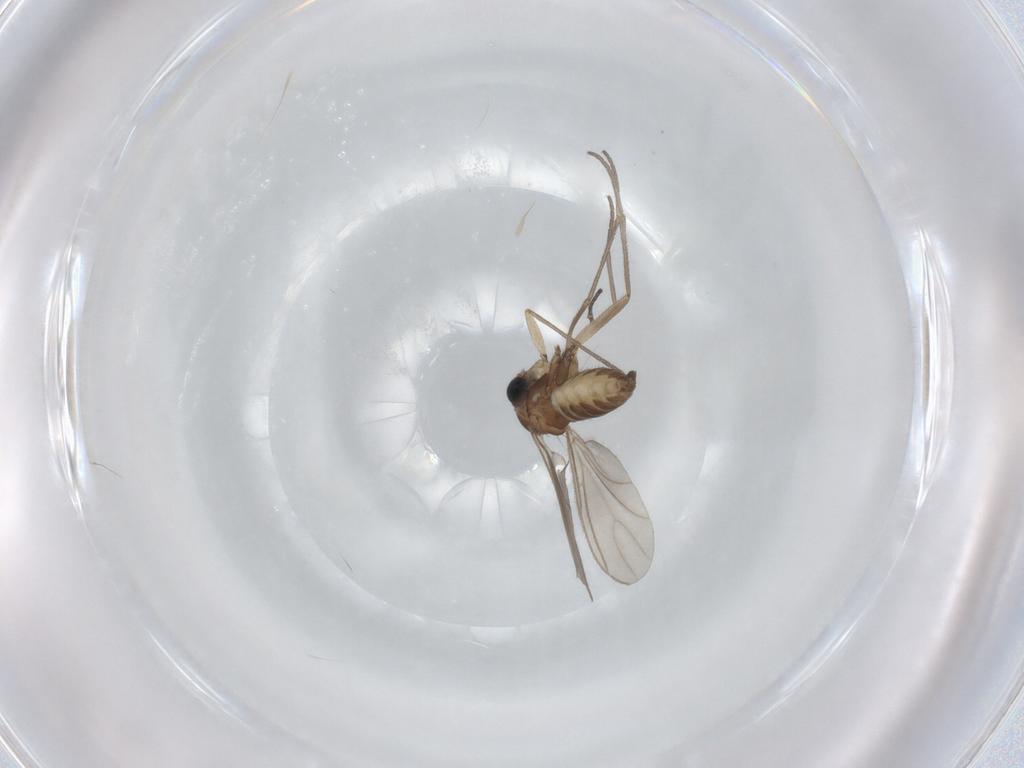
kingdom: Animalia
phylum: Arthropoda
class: Insecta
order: Diptera
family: Sciaridae
